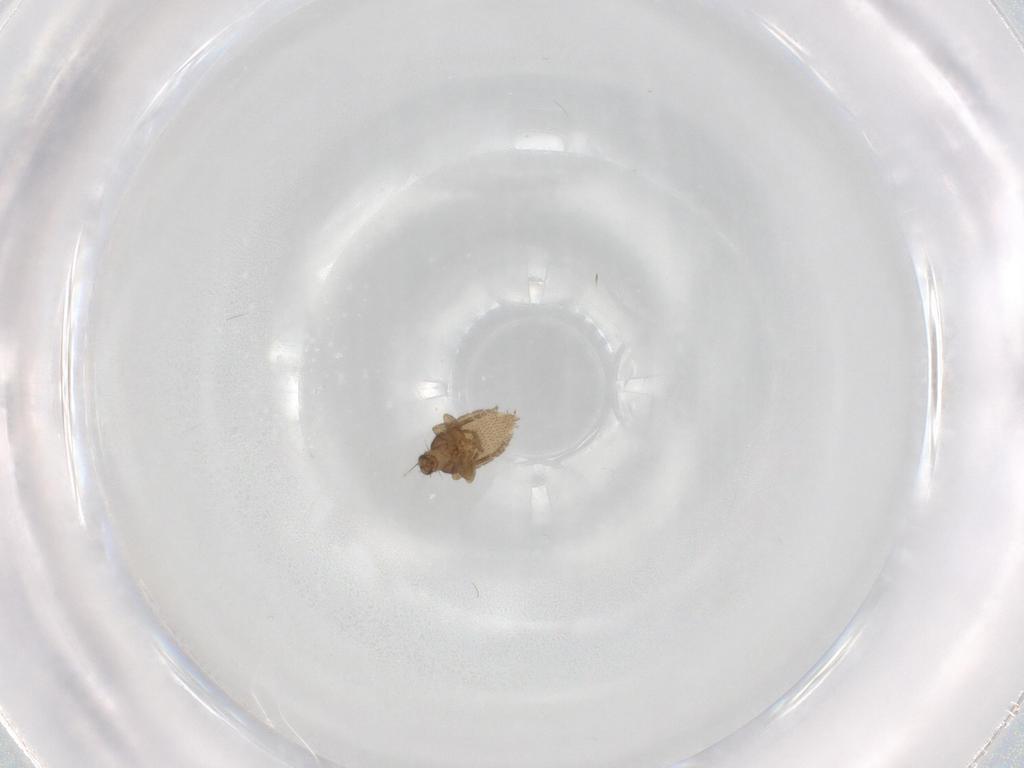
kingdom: Animalia
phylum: Arthropoda
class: Insecta
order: Diptera
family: Phoridae
